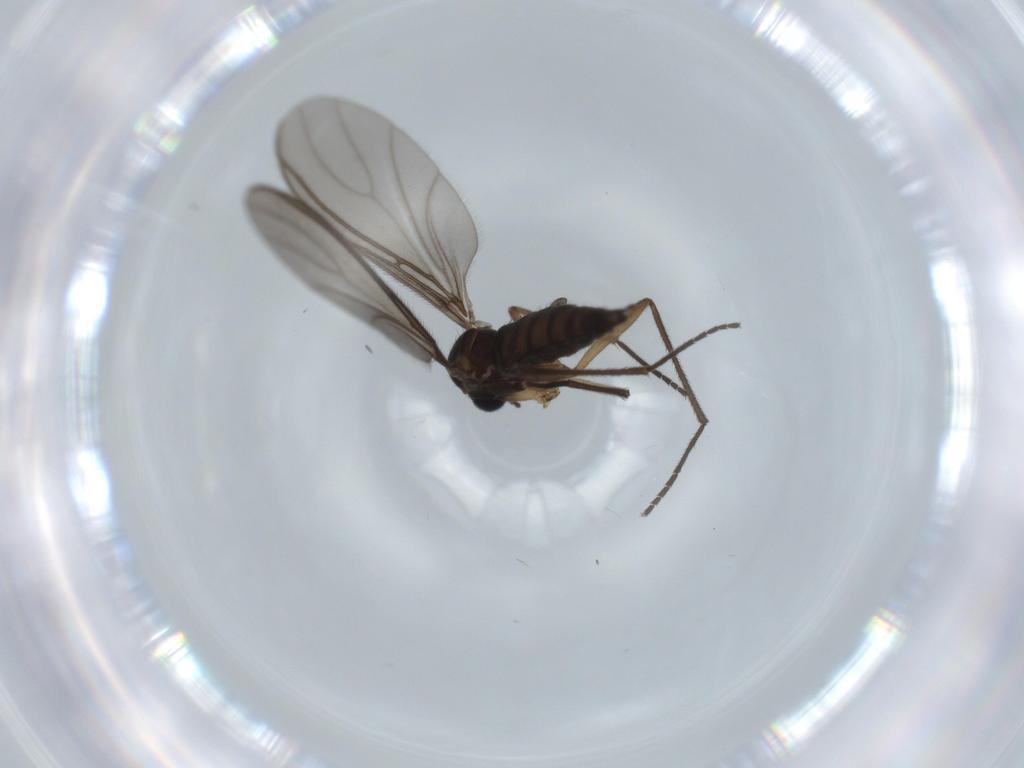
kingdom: Animalia
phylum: Arthropoda
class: Insecta
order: Diptera
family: Sciaridae
